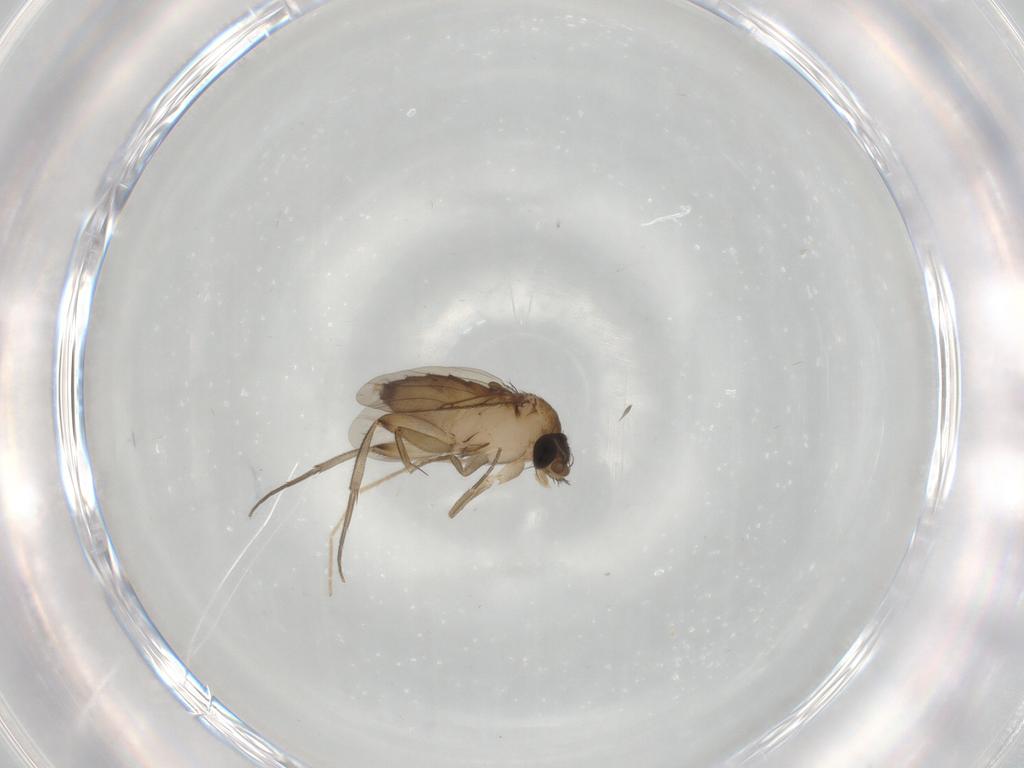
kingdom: Animalia
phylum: Arthropoda
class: Insecta
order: Diptera
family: Phoridae
